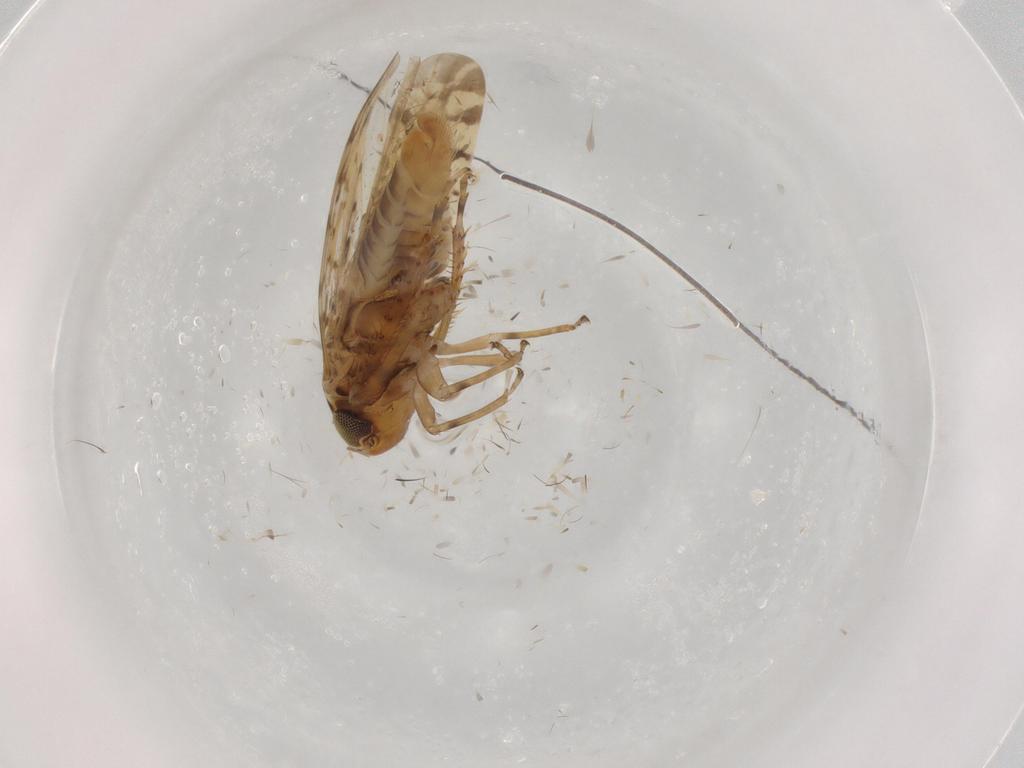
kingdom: Animalia
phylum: Arthropoda
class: Insecta
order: Hemiptera
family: Cicadellidae
